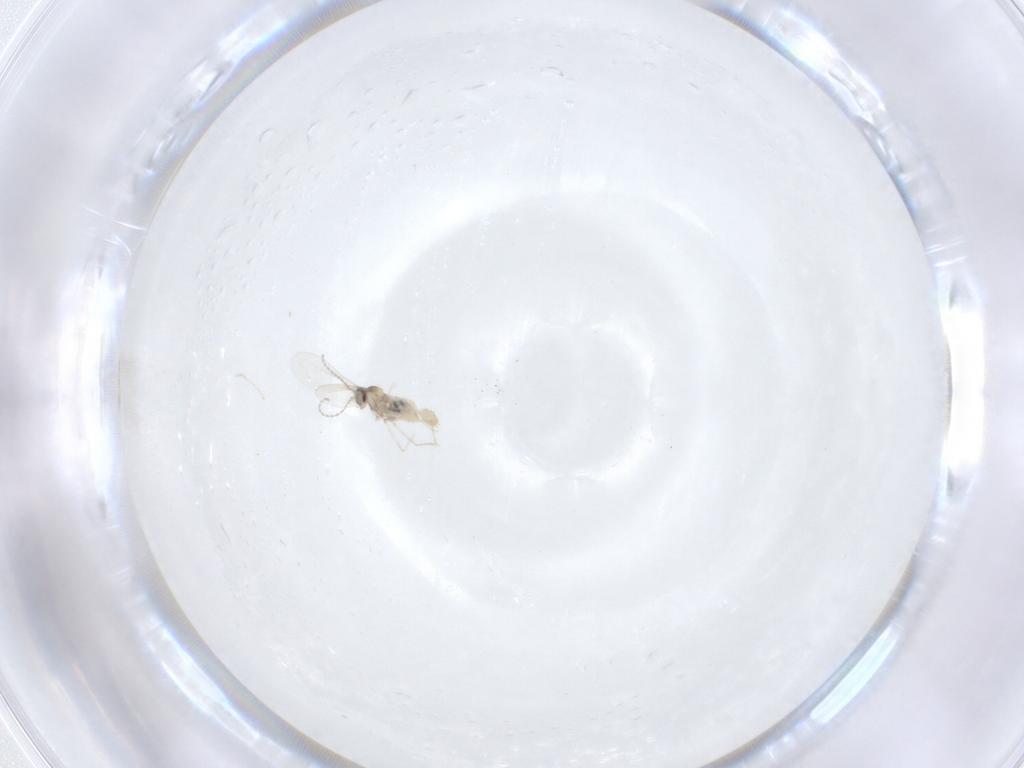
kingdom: Animalia
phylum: Arthropoda
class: Insecta
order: Diptera
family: Cecidomyiidae
